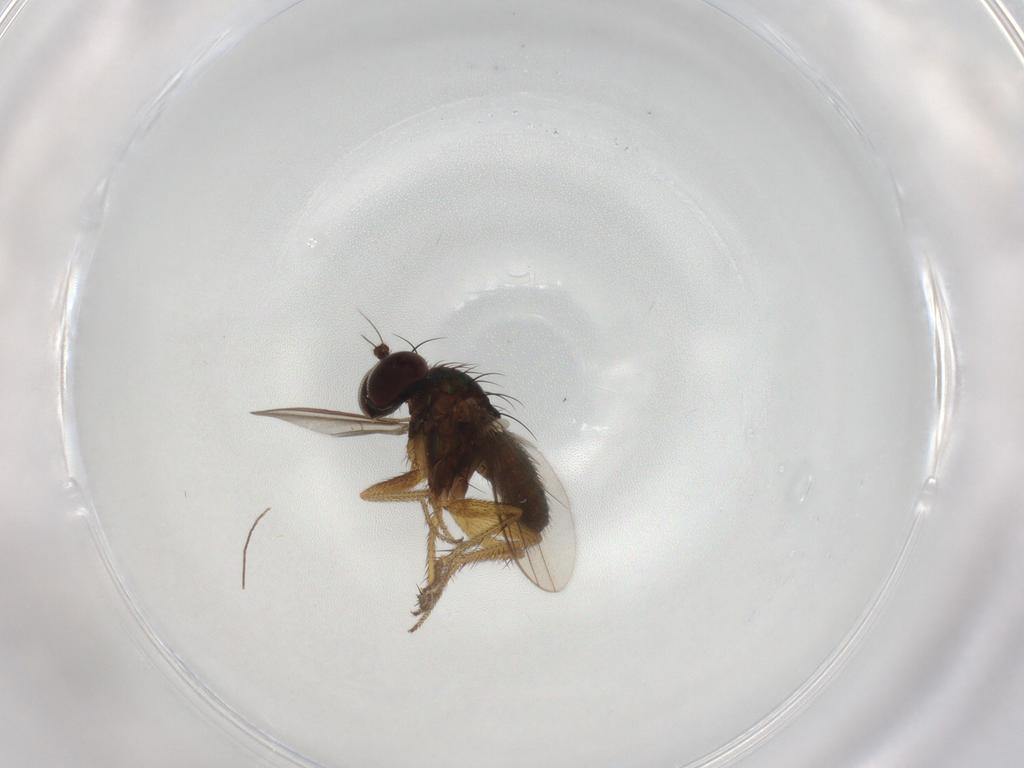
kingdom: Animalia
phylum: Arthropoda
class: Insecta
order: Diptera
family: Dolichopodidae
